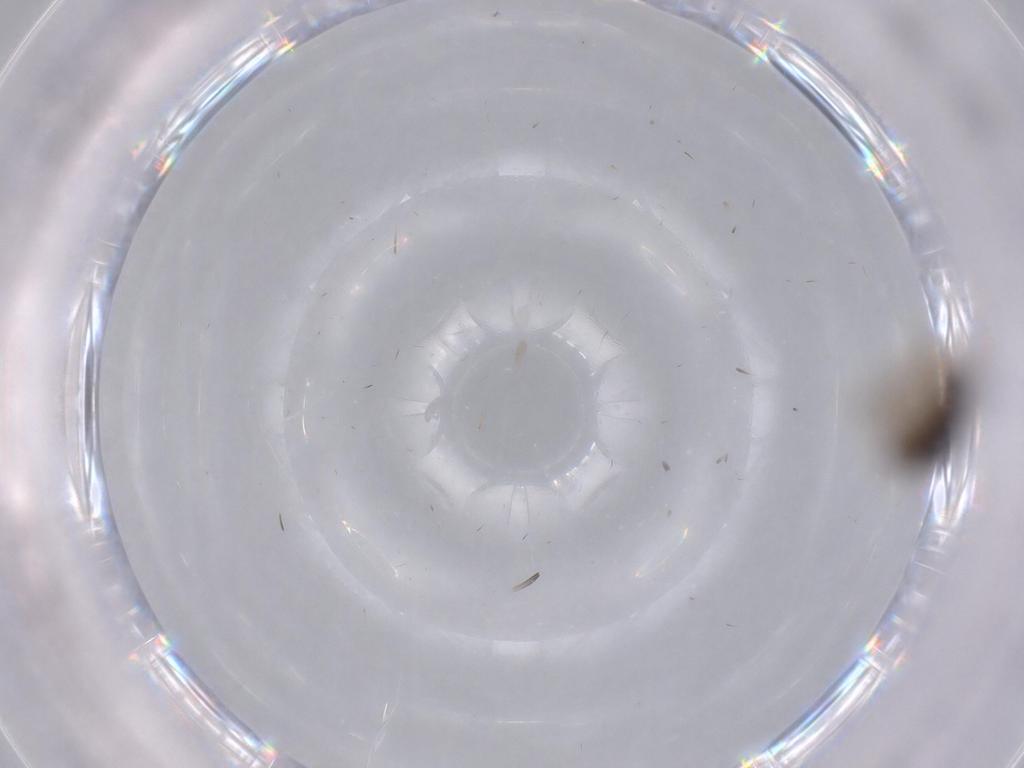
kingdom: Animalia
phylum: Arthropoda
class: Insecta
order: Hemiptera
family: Ceratocombidae
